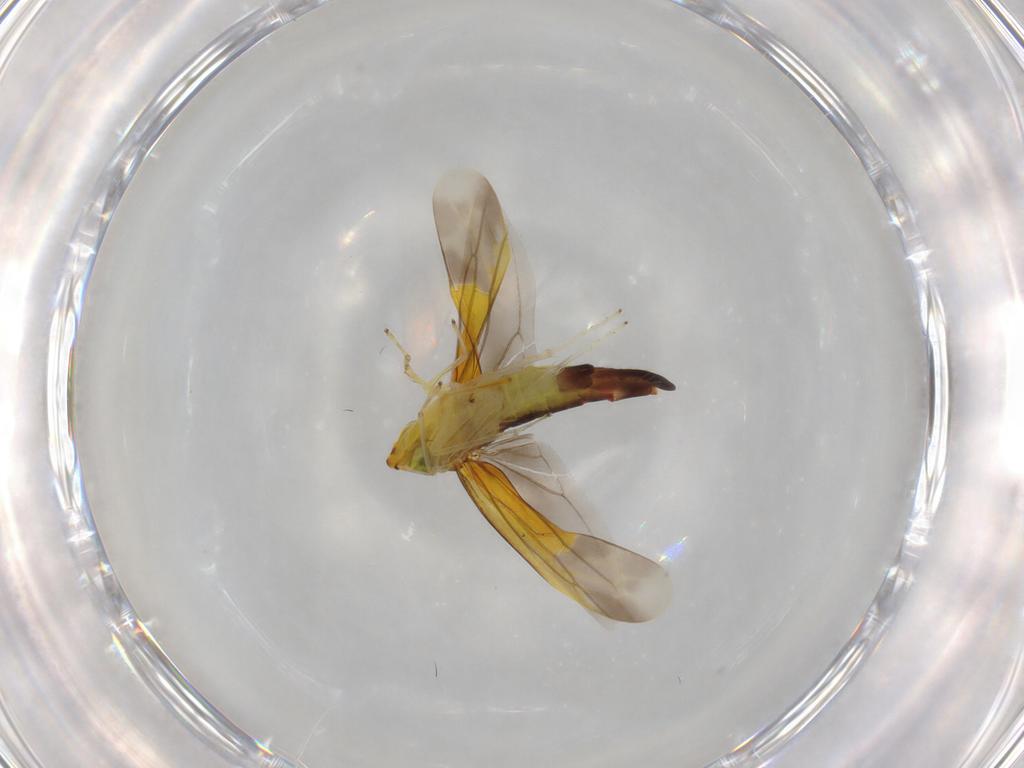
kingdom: Animalia
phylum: Arthropoda
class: Insecta
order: Hemiptera
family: Cicadellidae
